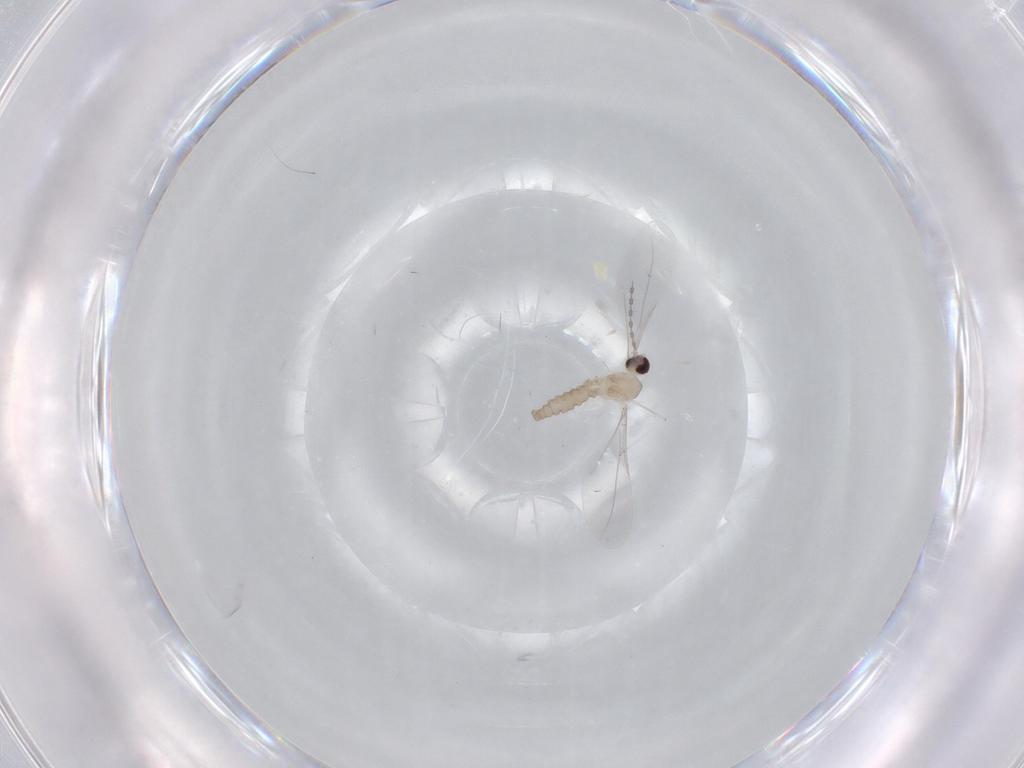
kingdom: Animalia
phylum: Arthropoda
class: Insecta
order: Diptera
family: Cecidomyiidae
